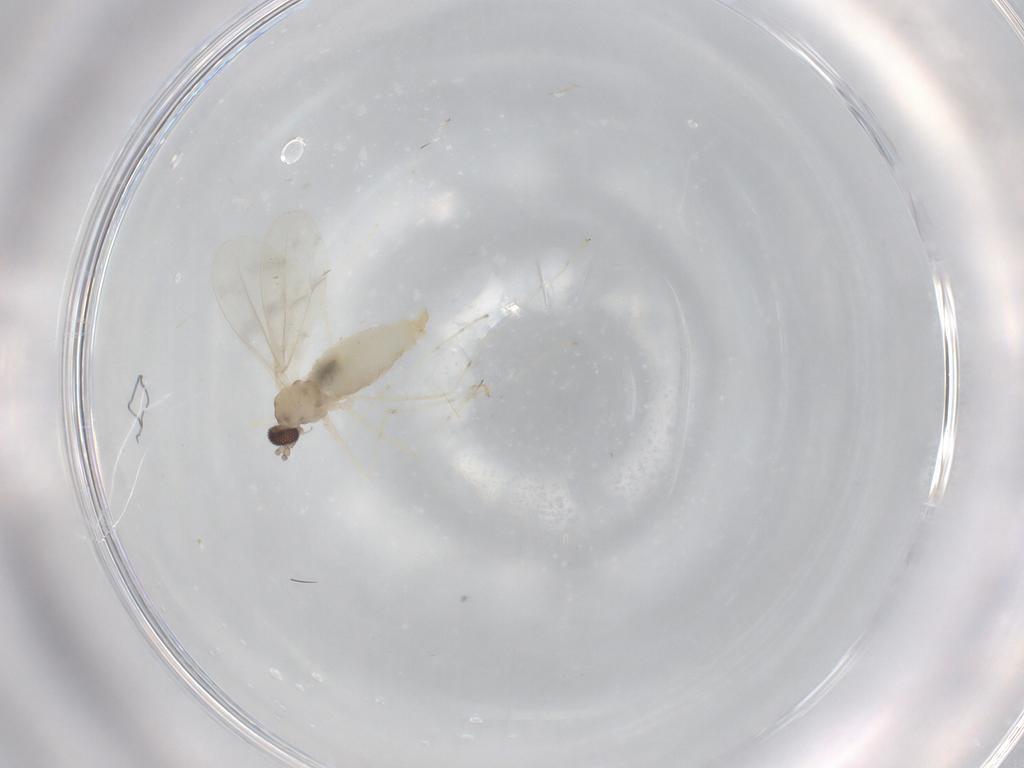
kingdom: Animalia
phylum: Arthropoda
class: Insecta
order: Diptera
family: Cecidomyiidae
